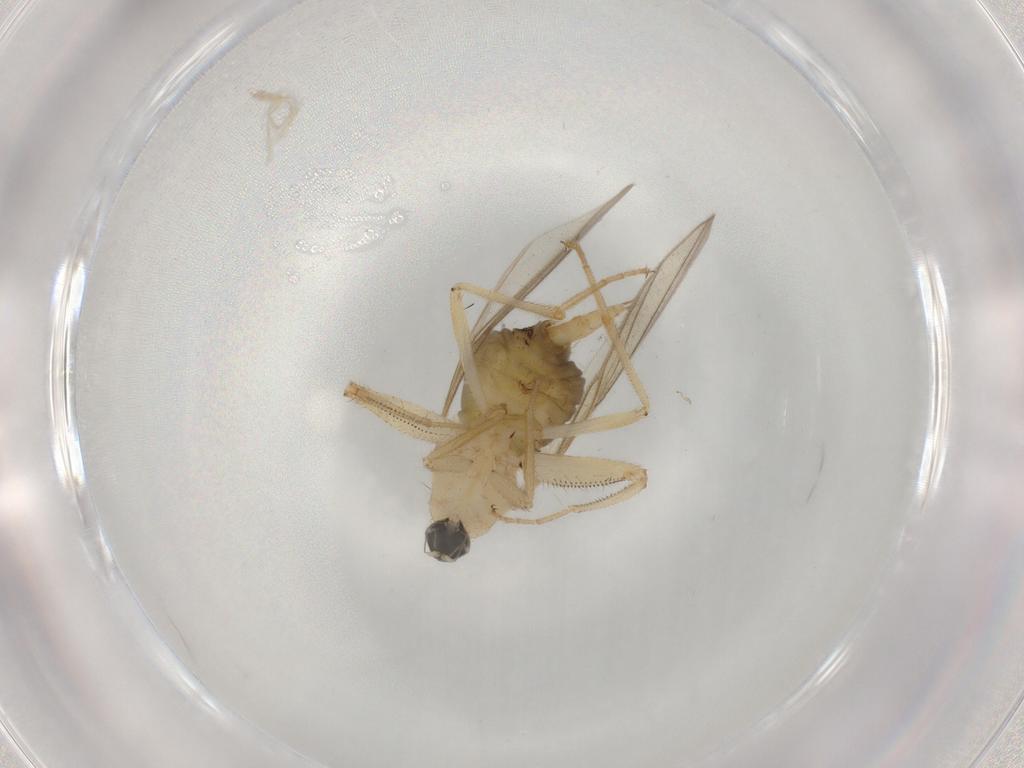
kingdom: Animalia
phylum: Arthropoda
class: Insecta
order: Diptera
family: Hybotidae
